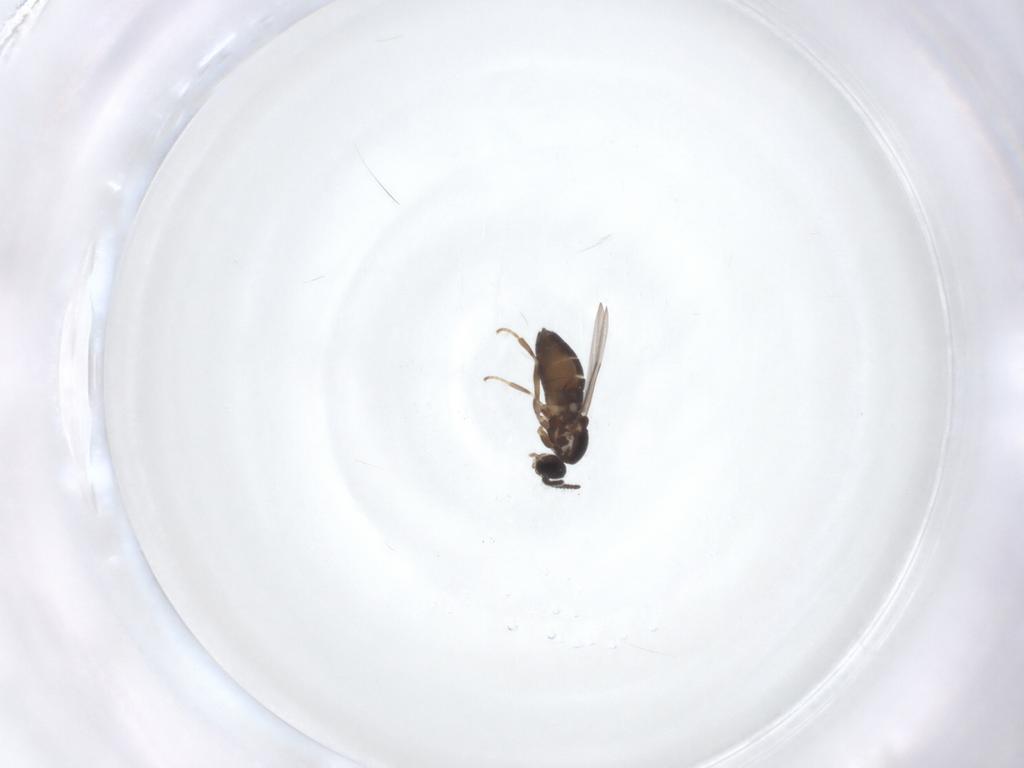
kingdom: Animalia
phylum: Arthropoda
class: Insecta
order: Diptera
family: Scatopsidae
